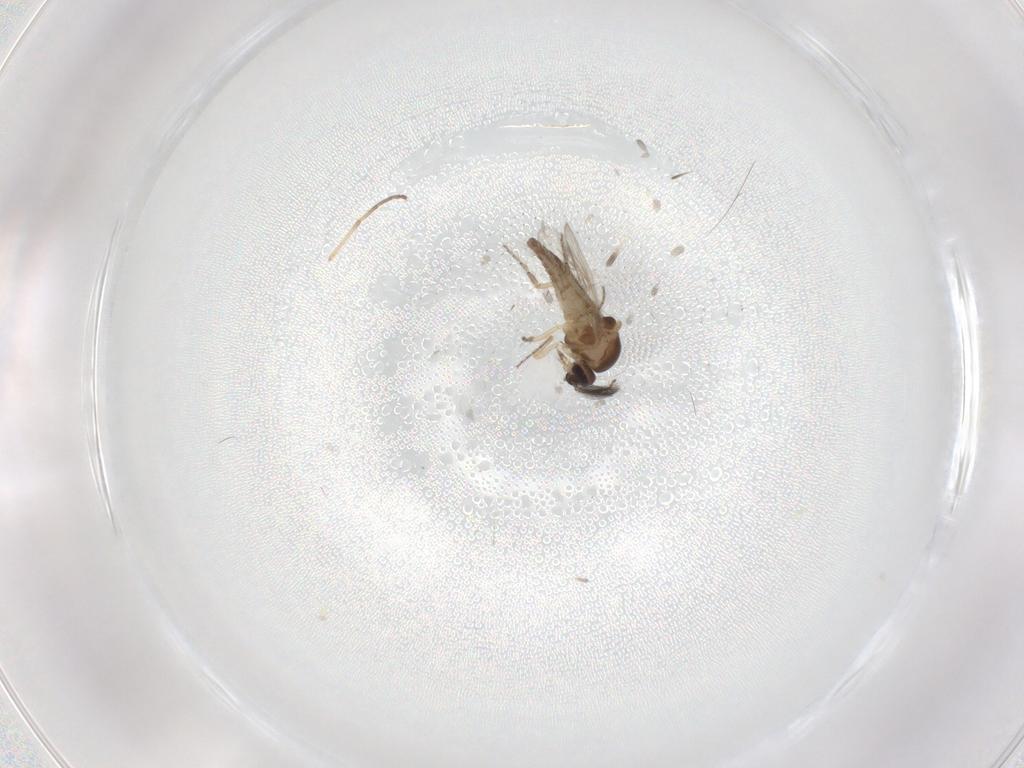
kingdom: Animalia
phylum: Arthropoda
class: Insecta
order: Diptera
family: Ceratopogonidae
